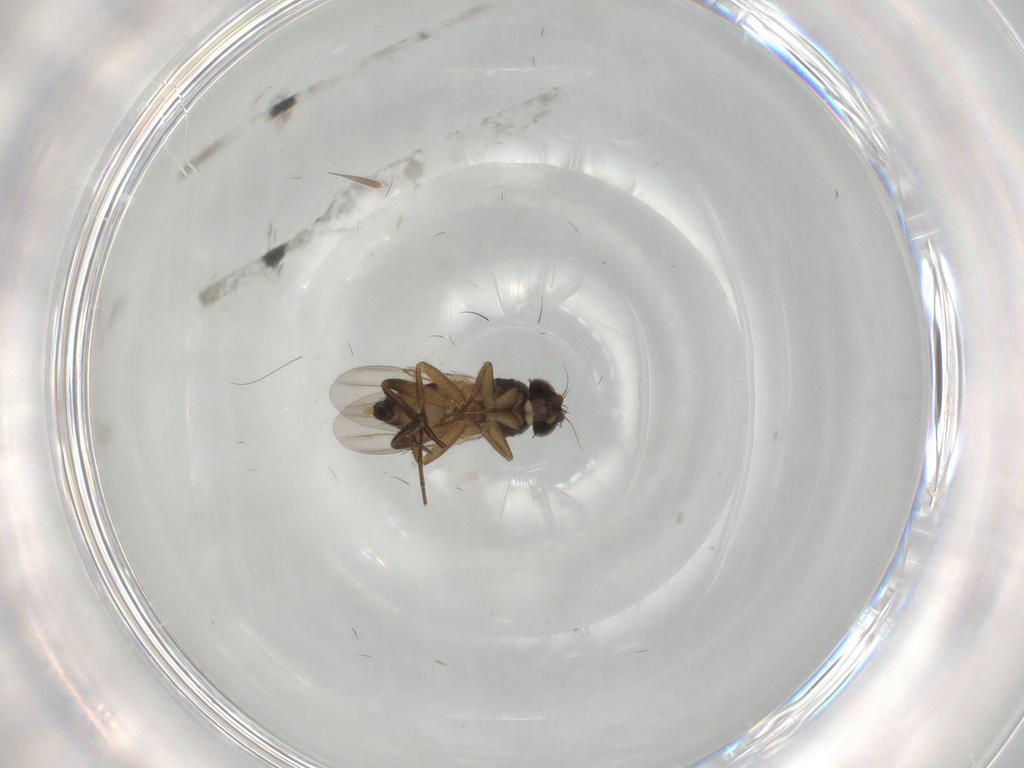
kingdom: Animalia
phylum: Arthropoda
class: Insecta
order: Diptera
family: Phoridae
